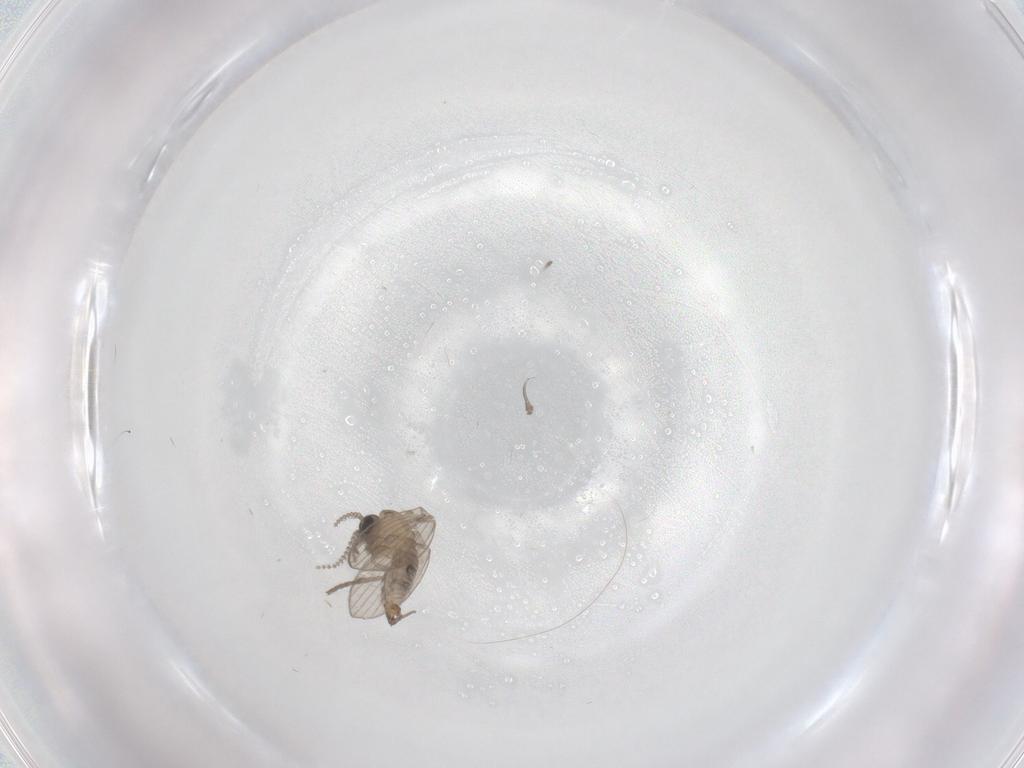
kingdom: Animalia
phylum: Arthropoda
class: Insecta
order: Diptera
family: Psychodidae
